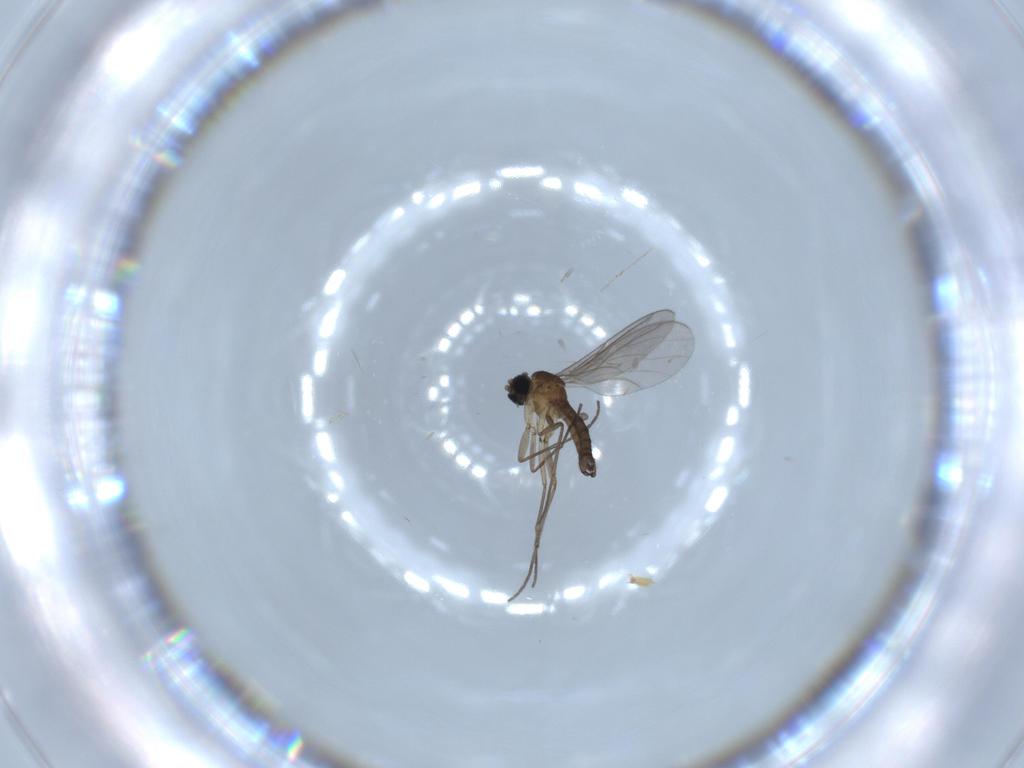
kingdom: Animalia
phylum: Arthropoda
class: Insecta
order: Diptera
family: Sciaridae
